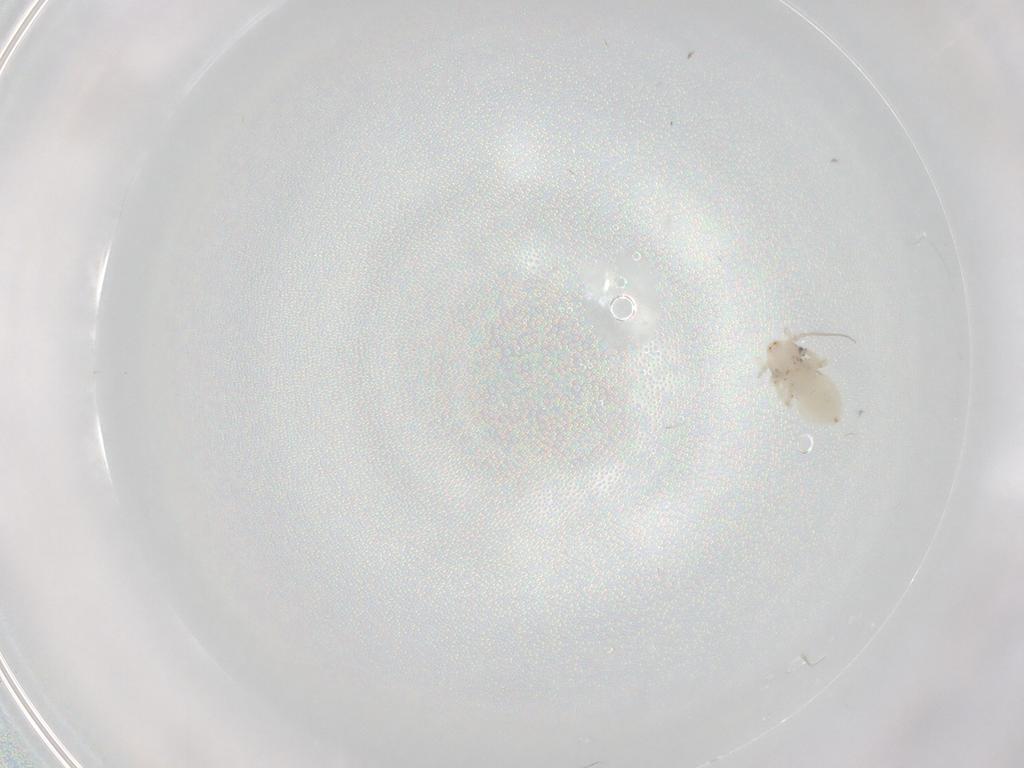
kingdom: Animalia
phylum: Arthropoda
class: Insecta
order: Psocodea
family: Lepidopsocidae
